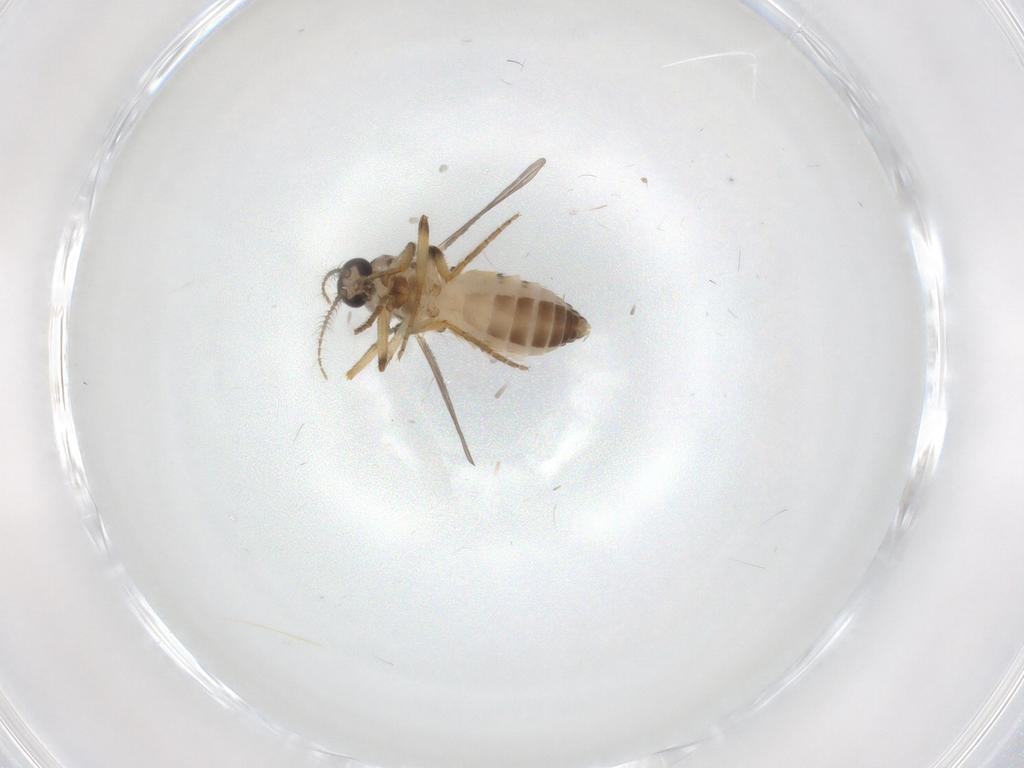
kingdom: Animalia
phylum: Arthropoda
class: Insecta
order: Diptera
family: Ceratopogonidae
